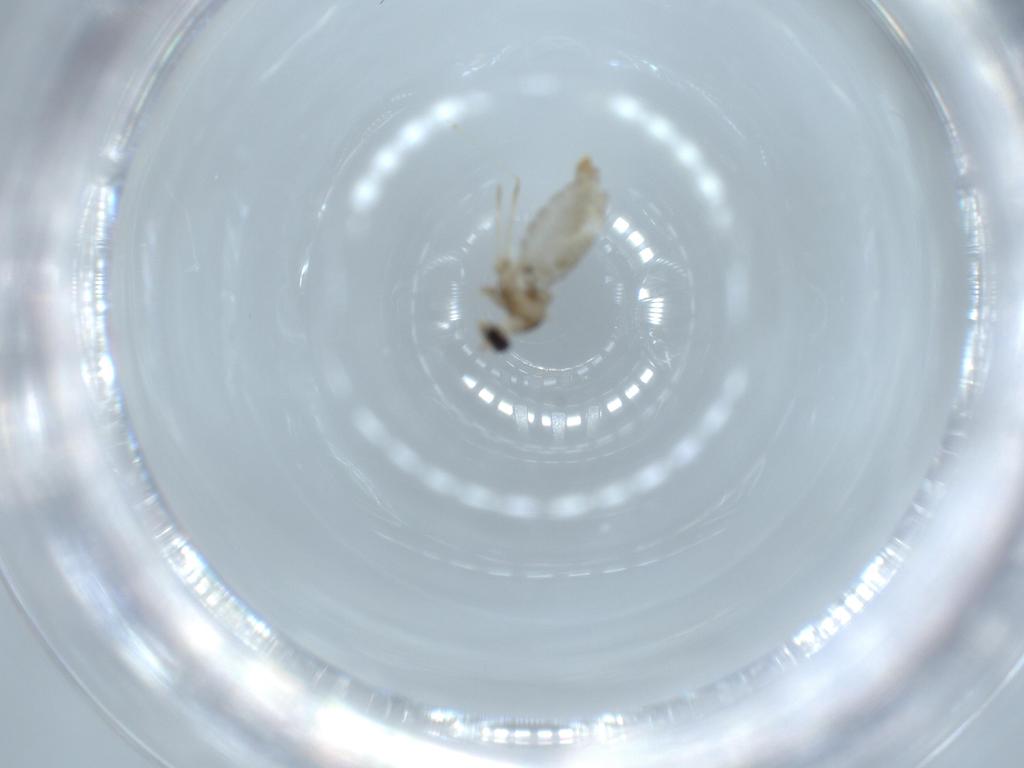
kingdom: Animalia
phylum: Arthropoda
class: Insecta
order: Diptera
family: Cecidomyiidae
